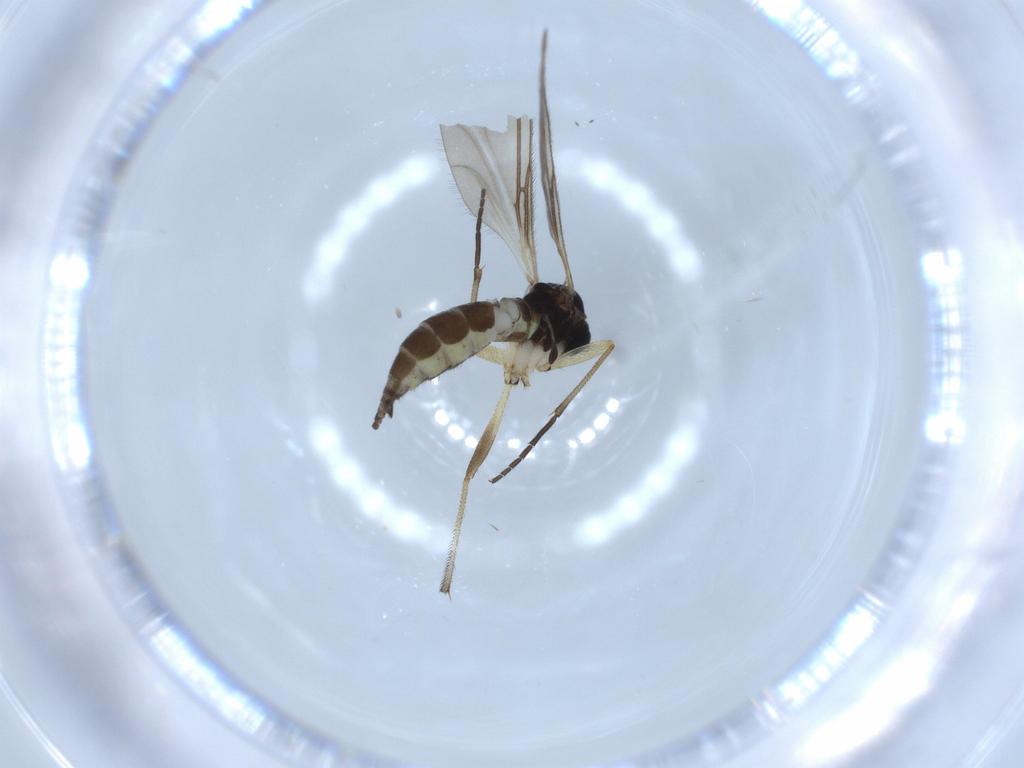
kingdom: Animalia
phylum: Arthropoda
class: Insecta
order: Diptera
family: Sciaridae
